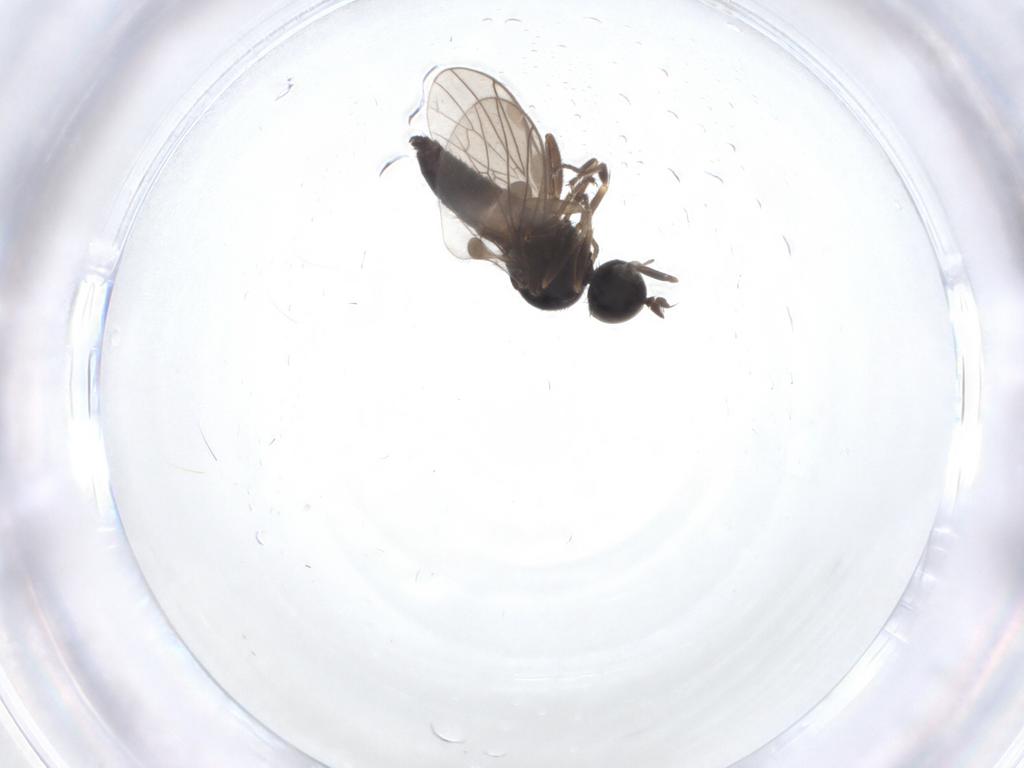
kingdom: Animalia
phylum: Arthropoda
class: Insecta
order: Diptera
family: Hybotidae
